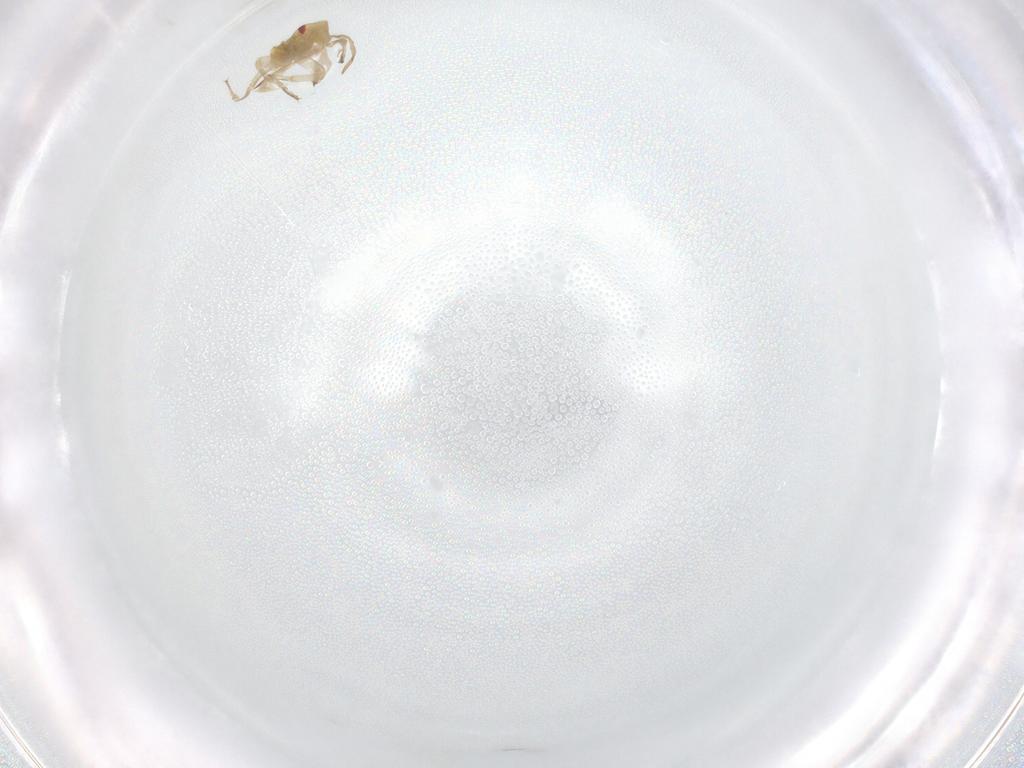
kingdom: Animalia
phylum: Arthropoda
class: Insecta
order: Hemiptera
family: Miridae
